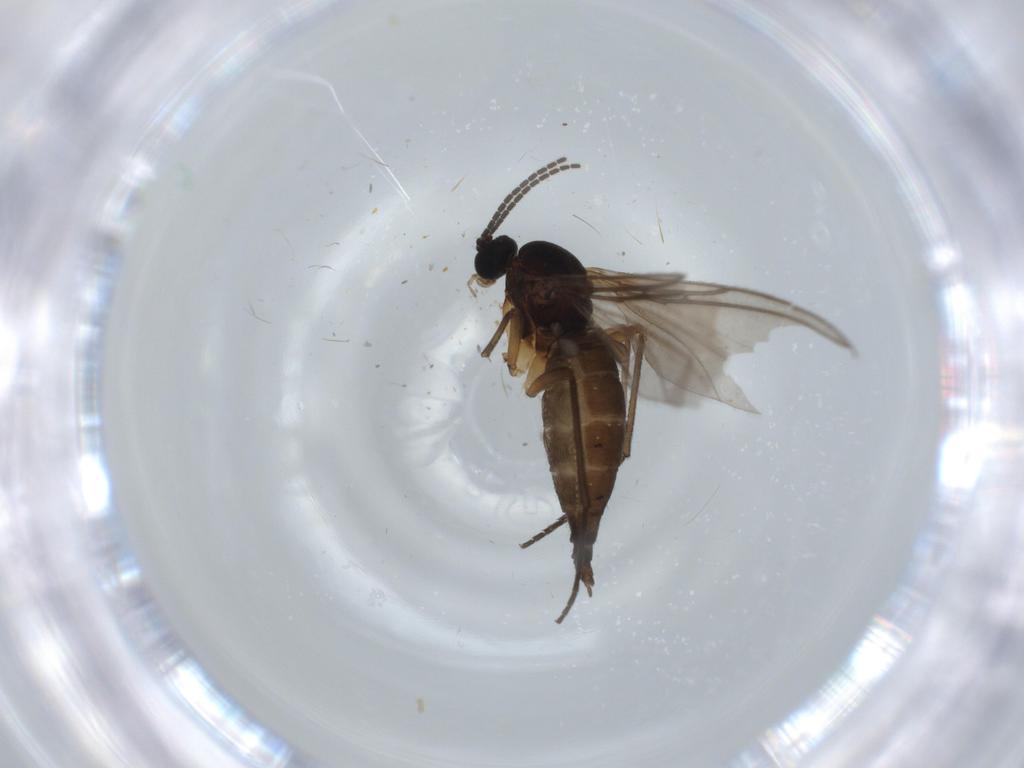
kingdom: Animalia
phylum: Arthropoda
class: Insecta
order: Diptera
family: Sciaridae
